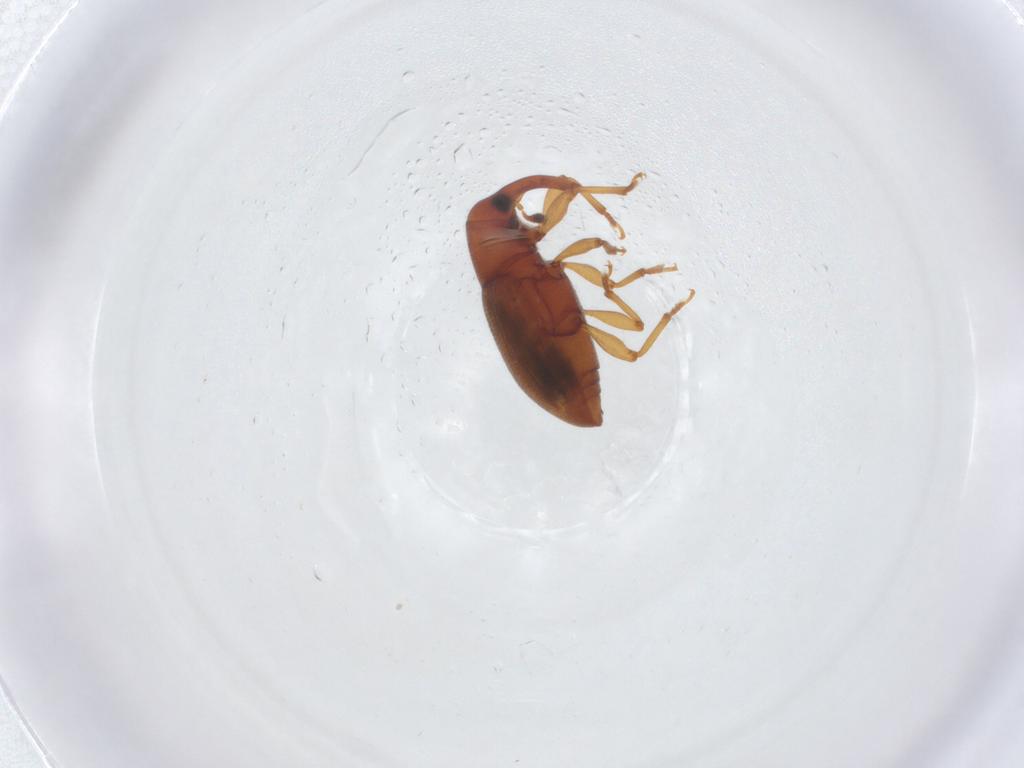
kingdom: Animalia
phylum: Arthropoda
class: Insecta
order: Coleoptera
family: Curculionidae
